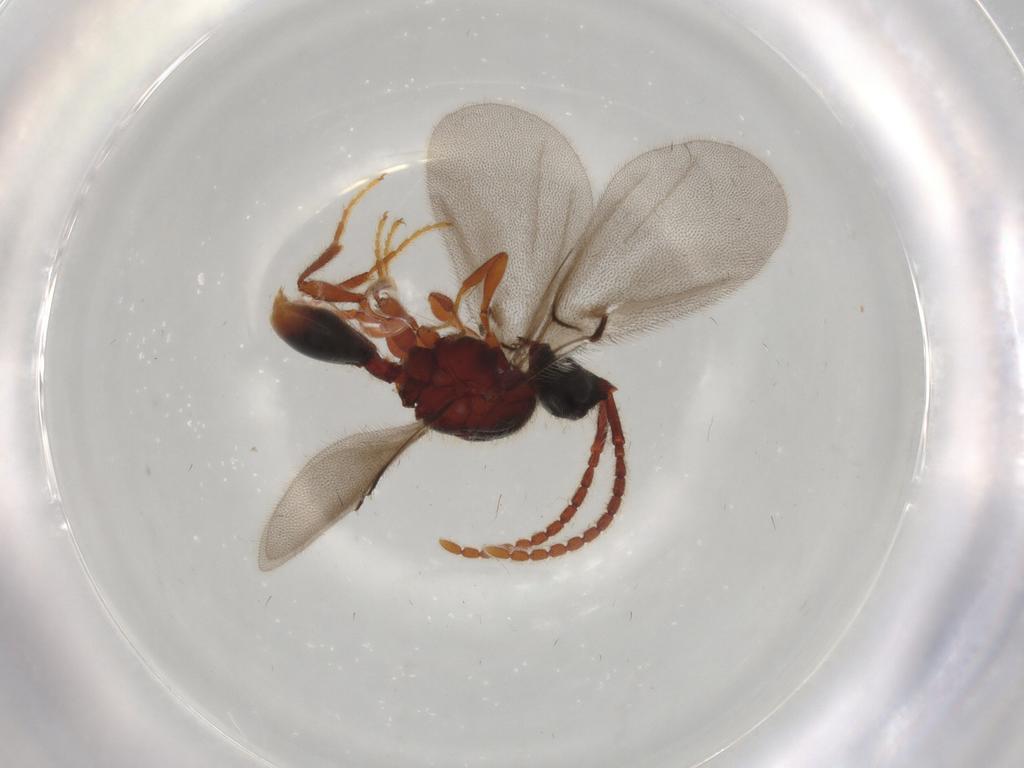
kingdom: Animalia
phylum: Arthropoda
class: Insecta
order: Hymenoptera
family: Diapriidae
